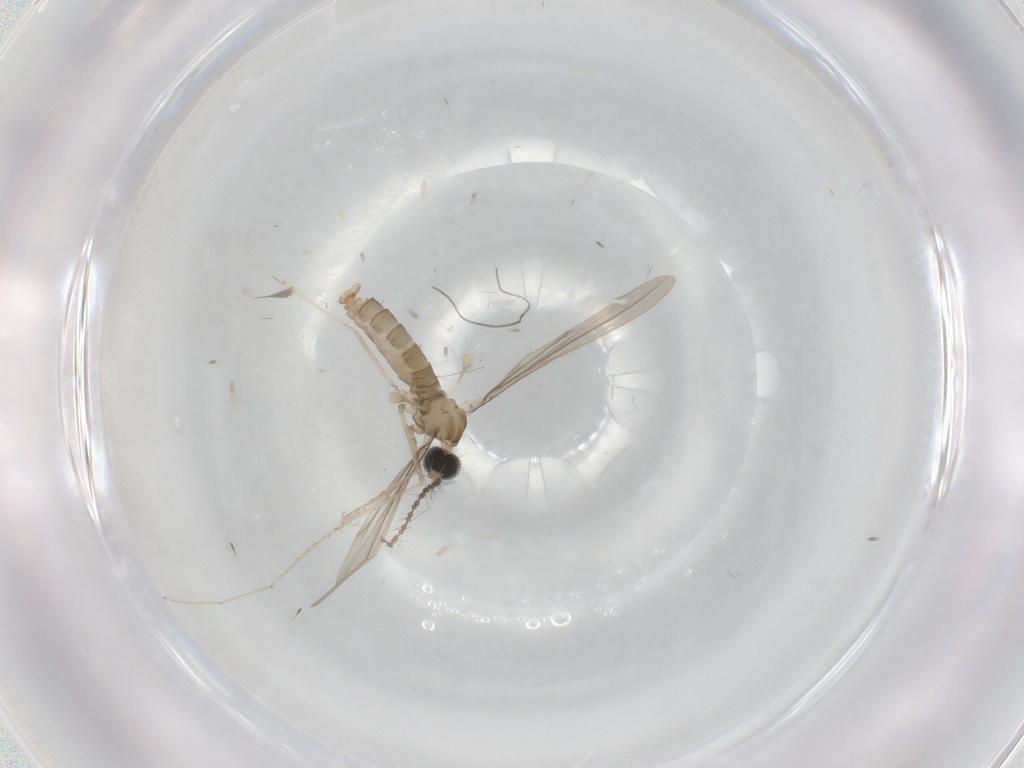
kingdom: Animalia
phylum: Arthropoda
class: Insecta
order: Diptera
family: Cecidomyiidae
